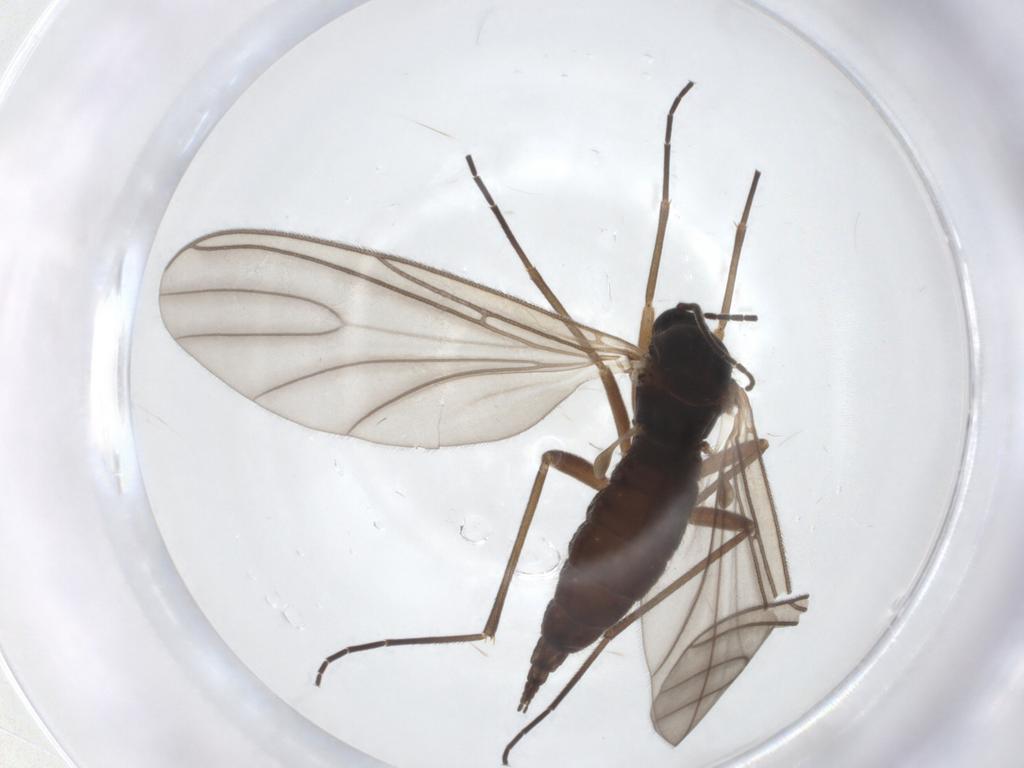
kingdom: Animalia
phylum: Arthropoda
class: Insecta
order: Diptera
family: Sciaridae
